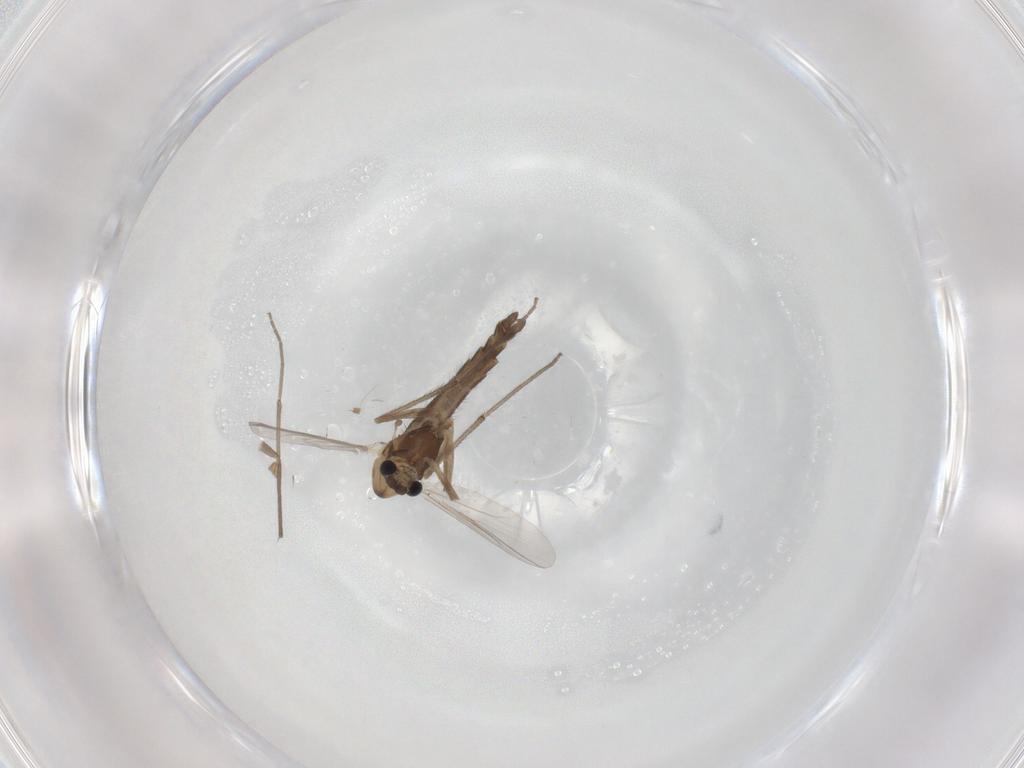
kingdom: Animalia
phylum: Arthropoda
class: Insecta
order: Diptera
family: Chironomidae
